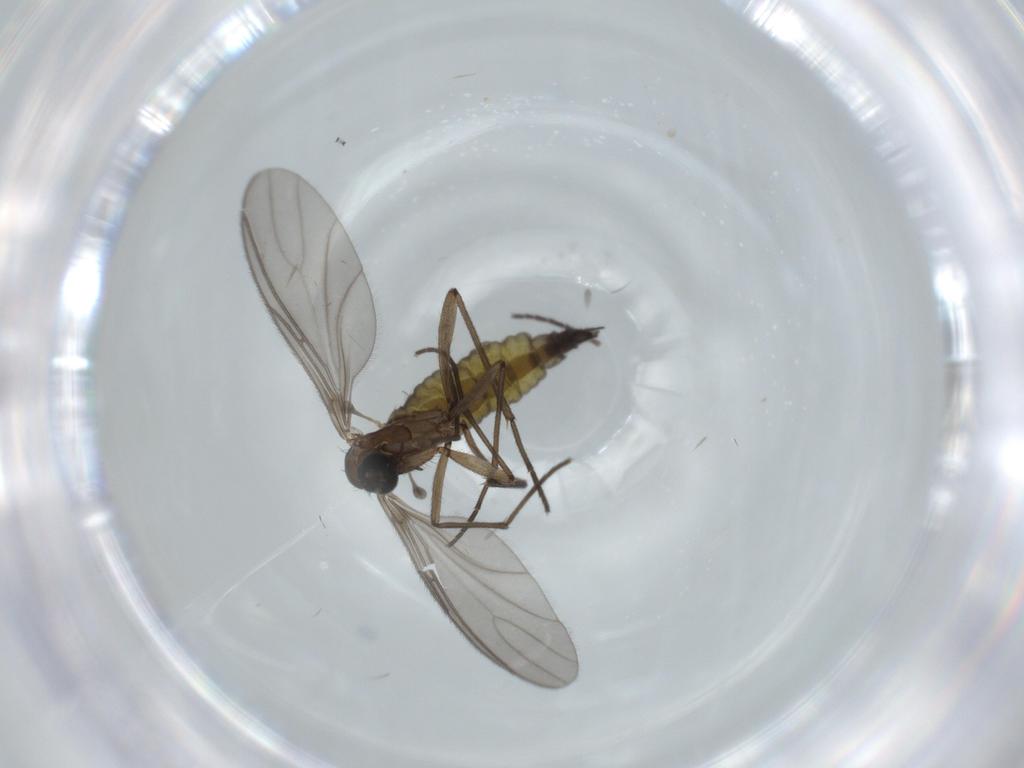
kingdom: Animalia
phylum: Arthropoda
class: Insecta
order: Diptera
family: Sciaridae
